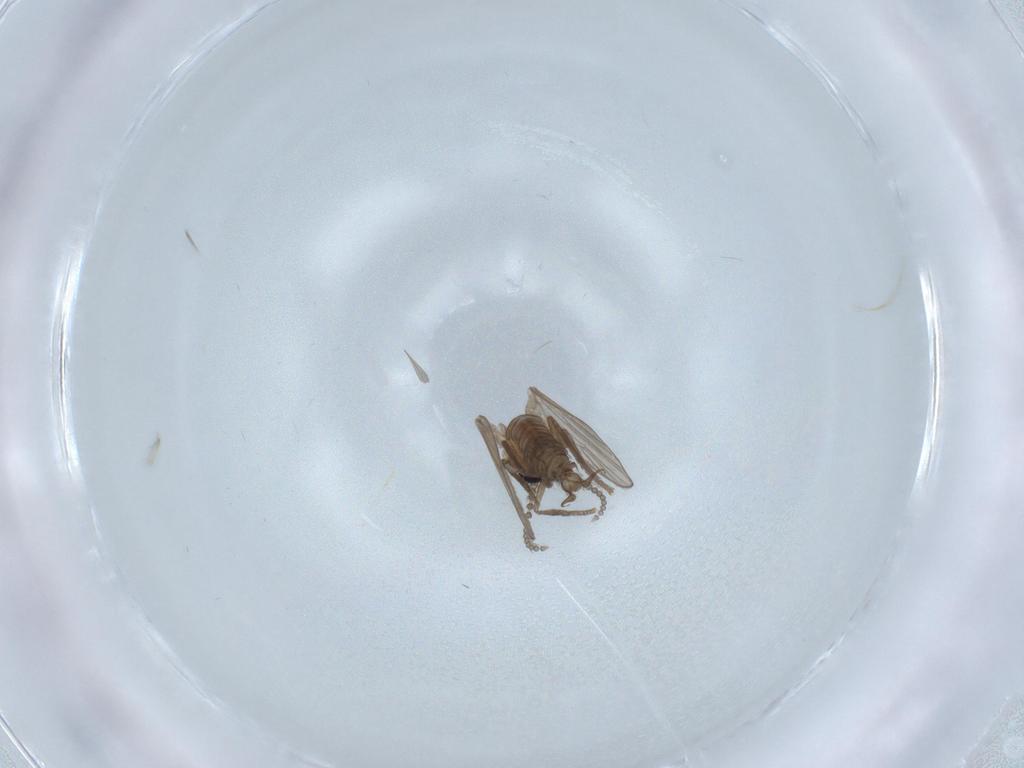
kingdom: Animalia
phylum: Arthropoda
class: Insecta
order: Diptera
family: Psychodidae
